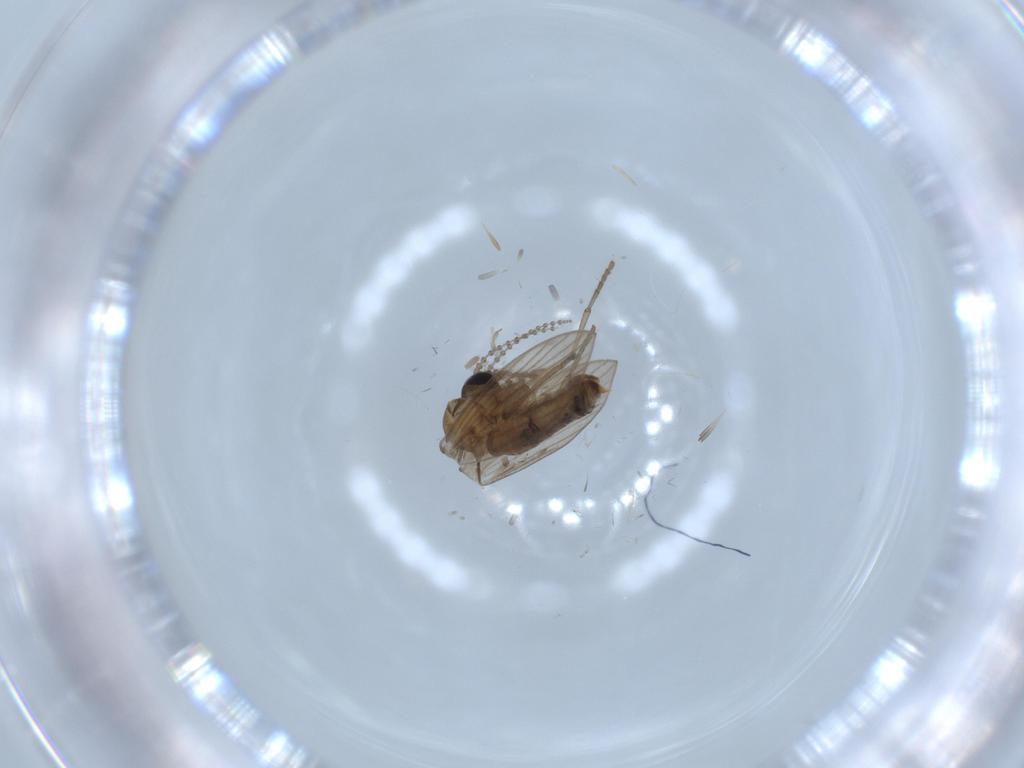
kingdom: Animalia
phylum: Arthropoda
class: Insecta
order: Diptera
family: Chironomidae
